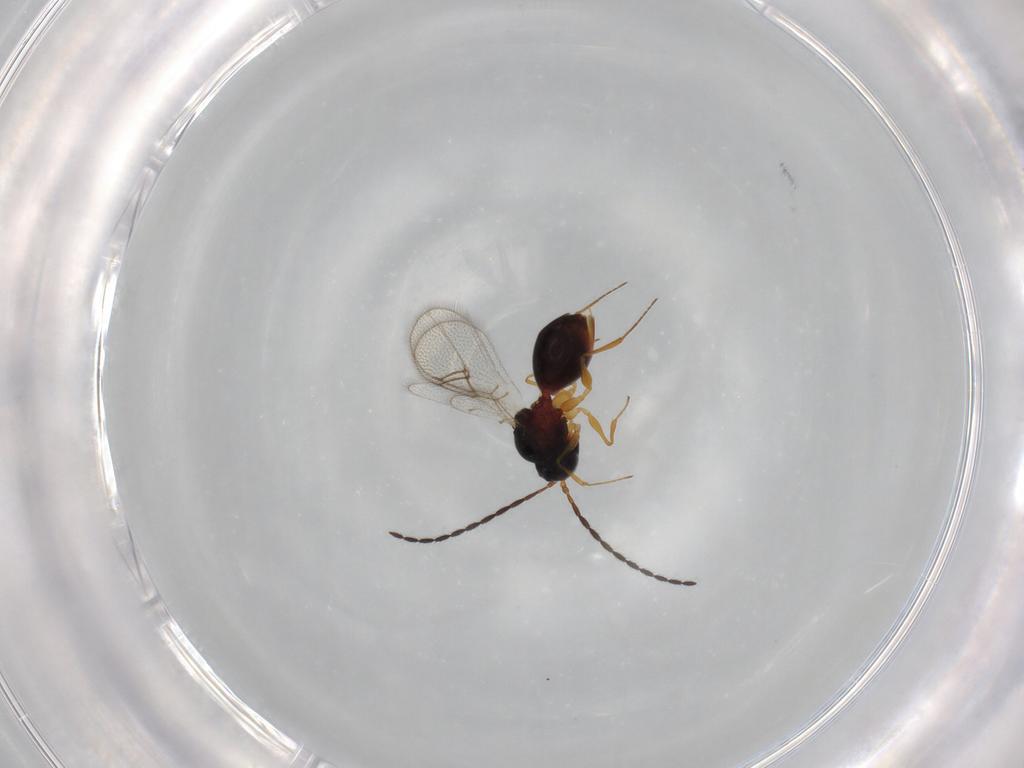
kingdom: Animalia
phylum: Arthropoda
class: Insecta
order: Hymenoptera
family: Figitidae
